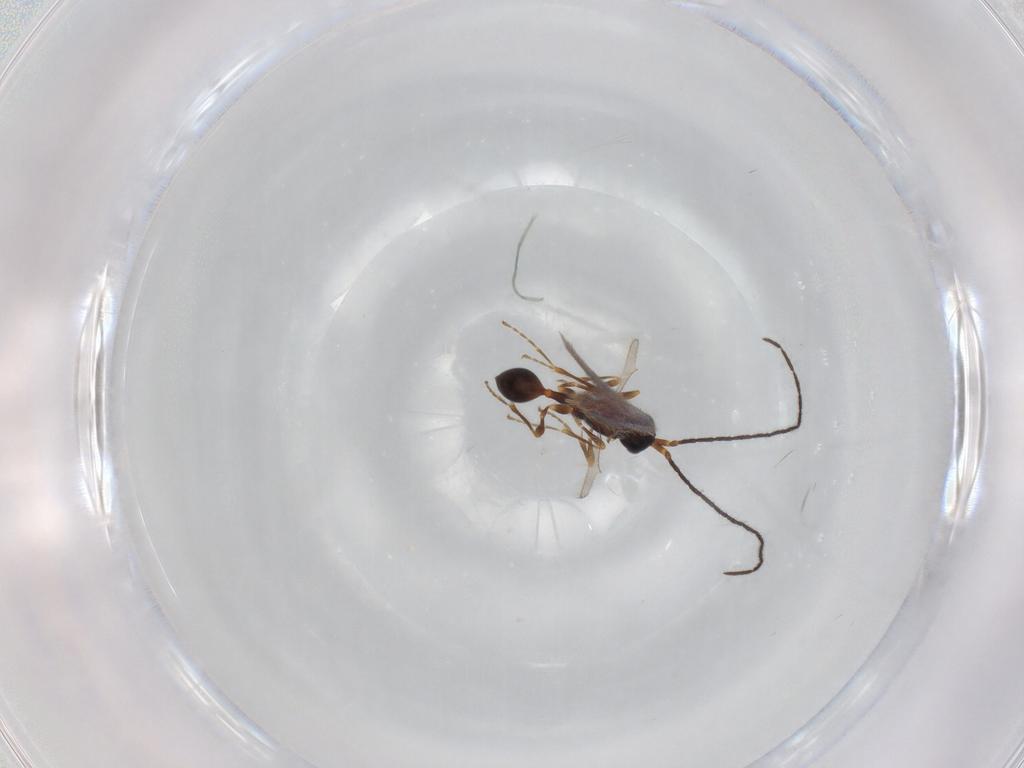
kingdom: Animalia
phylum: Arthropoda
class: Insecta
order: Hymenoptera
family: Diapriidae
